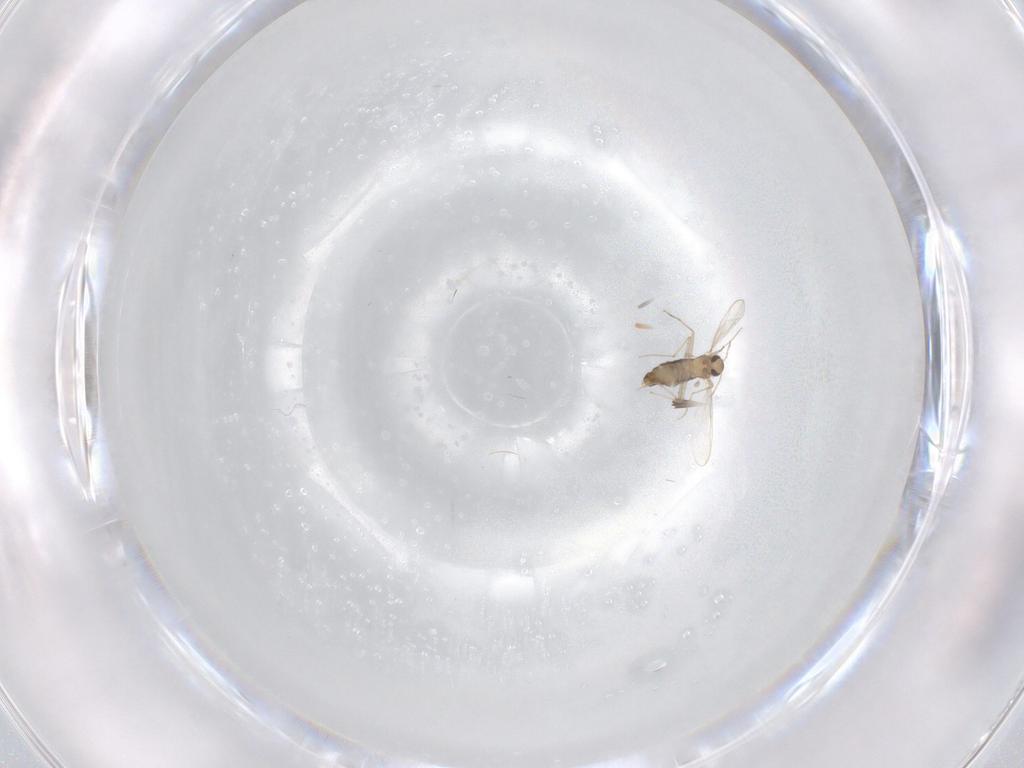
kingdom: Animalia
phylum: Arthropoda
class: Insecta
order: Diptera
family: Chironomidae
